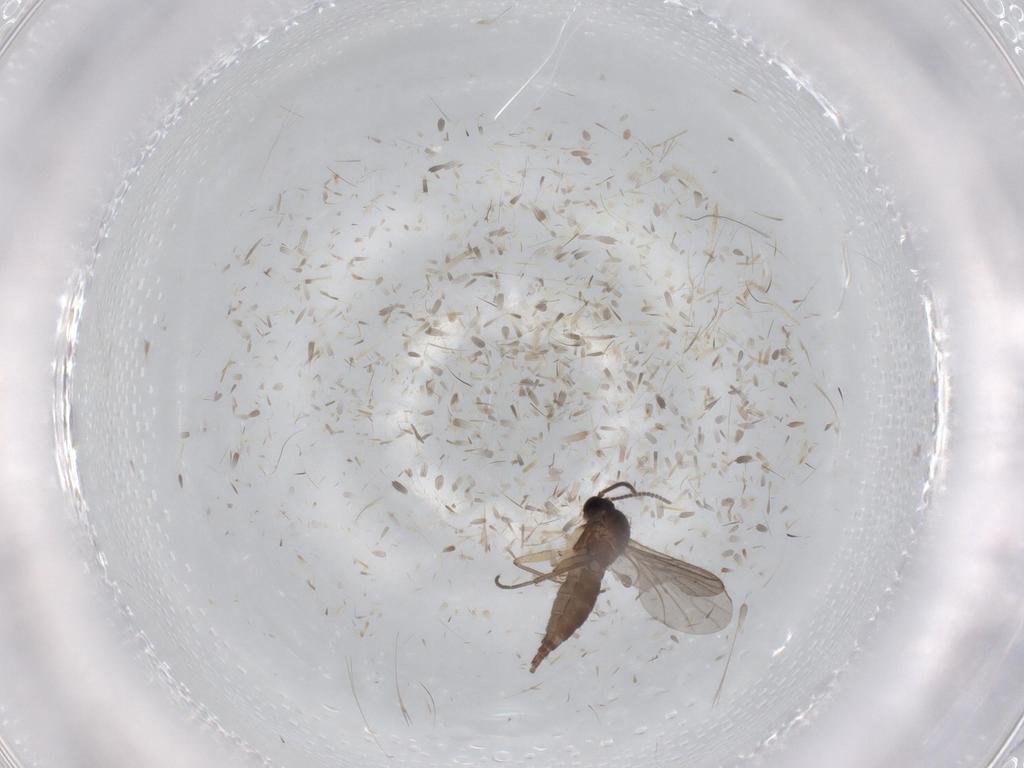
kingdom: Animalia
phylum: Arthropoda
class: Insecta
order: Diptera
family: Sciaridae
